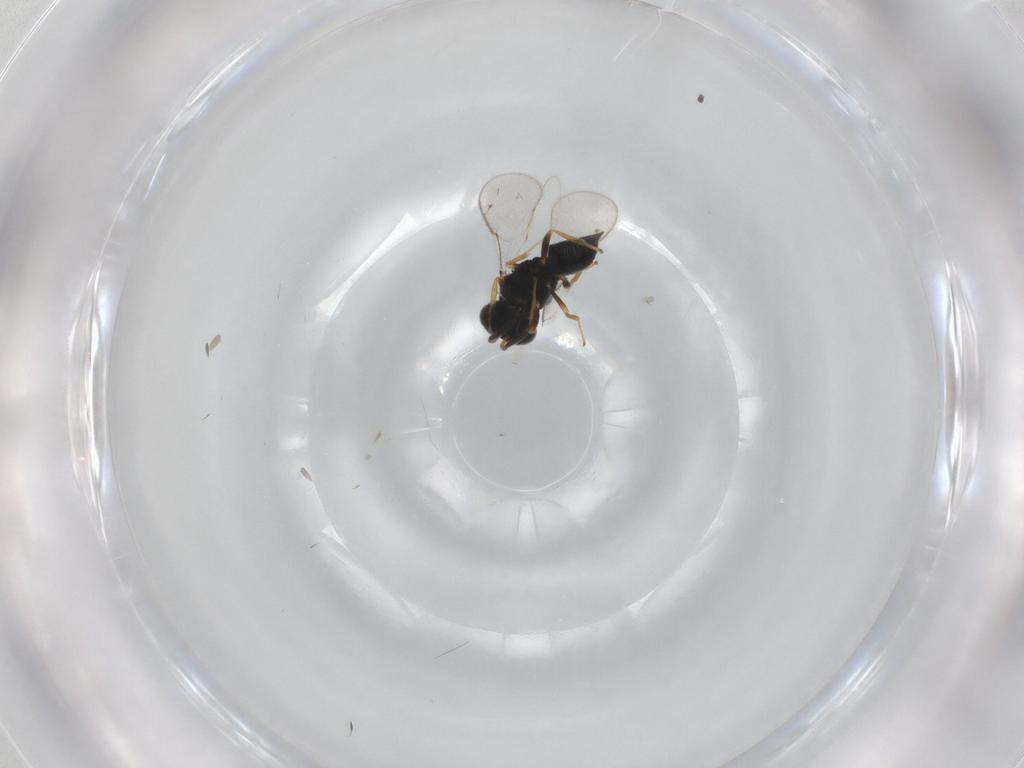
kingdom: Animalia
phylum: Arthropoda
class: Insecta
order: Hymenoptera
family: Pteromalidae
